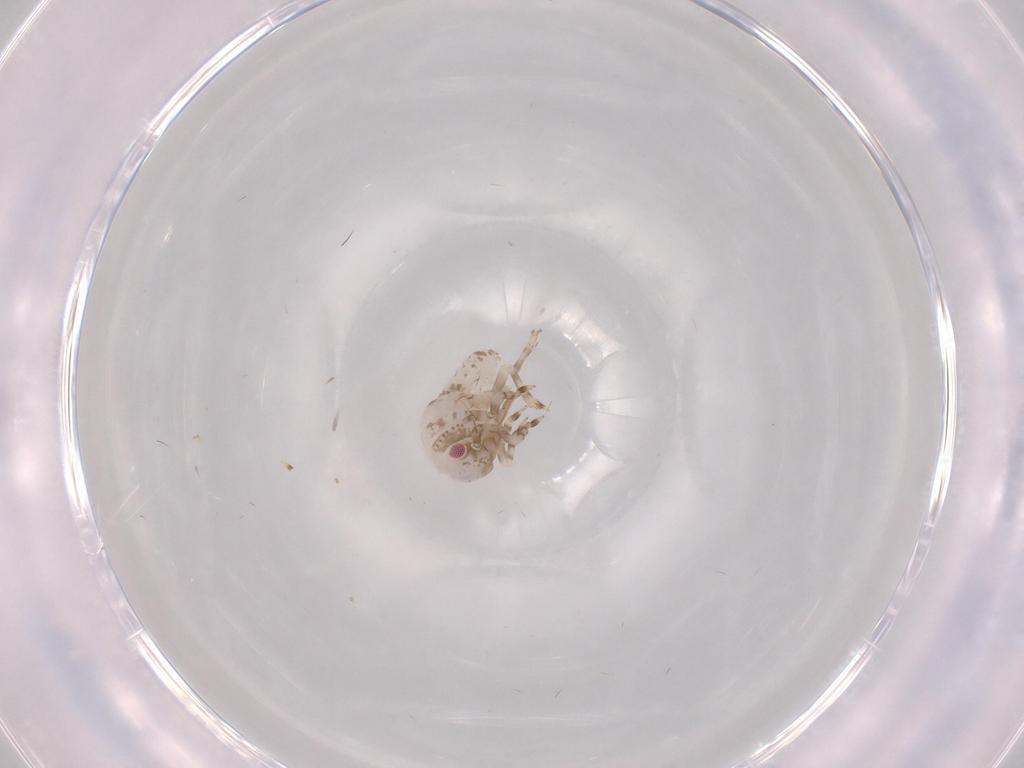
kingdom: Animalia
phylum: Arthropoda
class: Insecta
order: Hemiptera
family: Acanaloniidae
